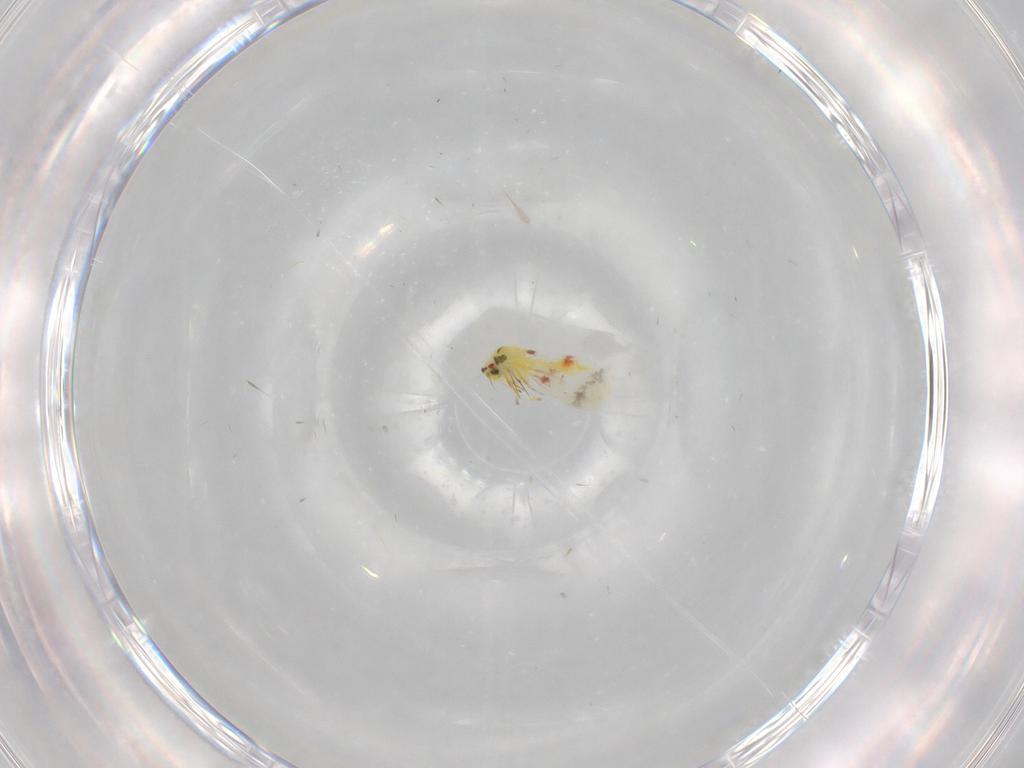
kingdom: Animalia
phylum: Arthropoda
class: Insecta
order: Hemiptera
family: Aleyrodidae
